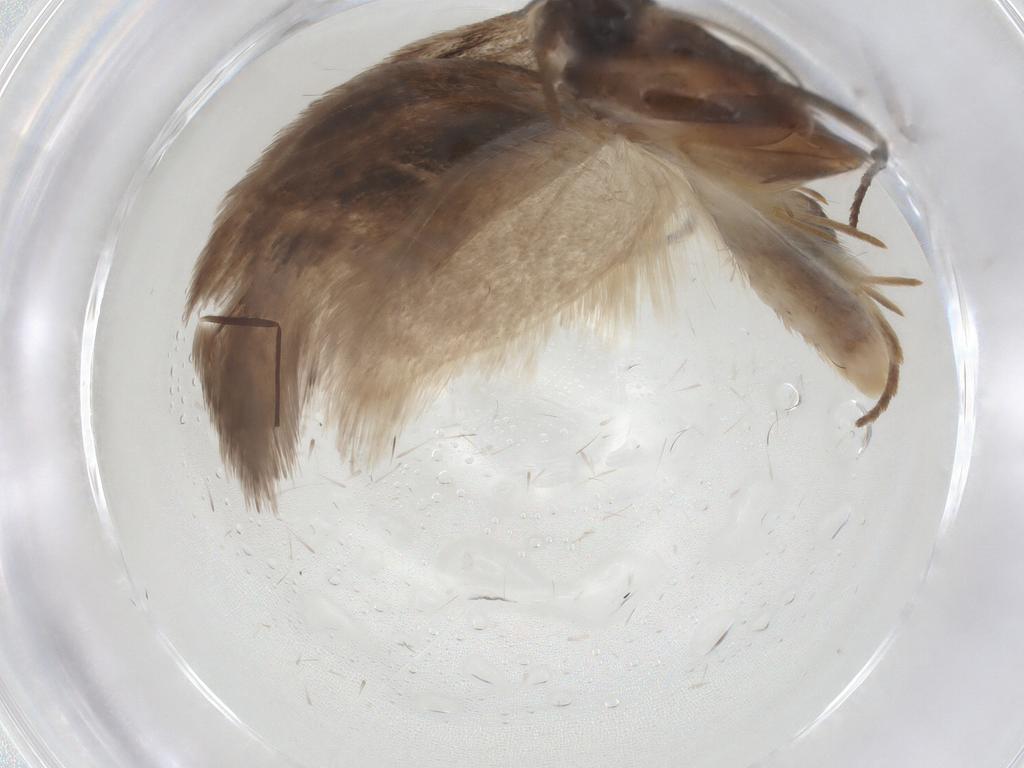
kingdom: Animalia
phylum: Arthropoda
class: Insecta
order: Lepidoptera
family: Roeslerstammiidae
